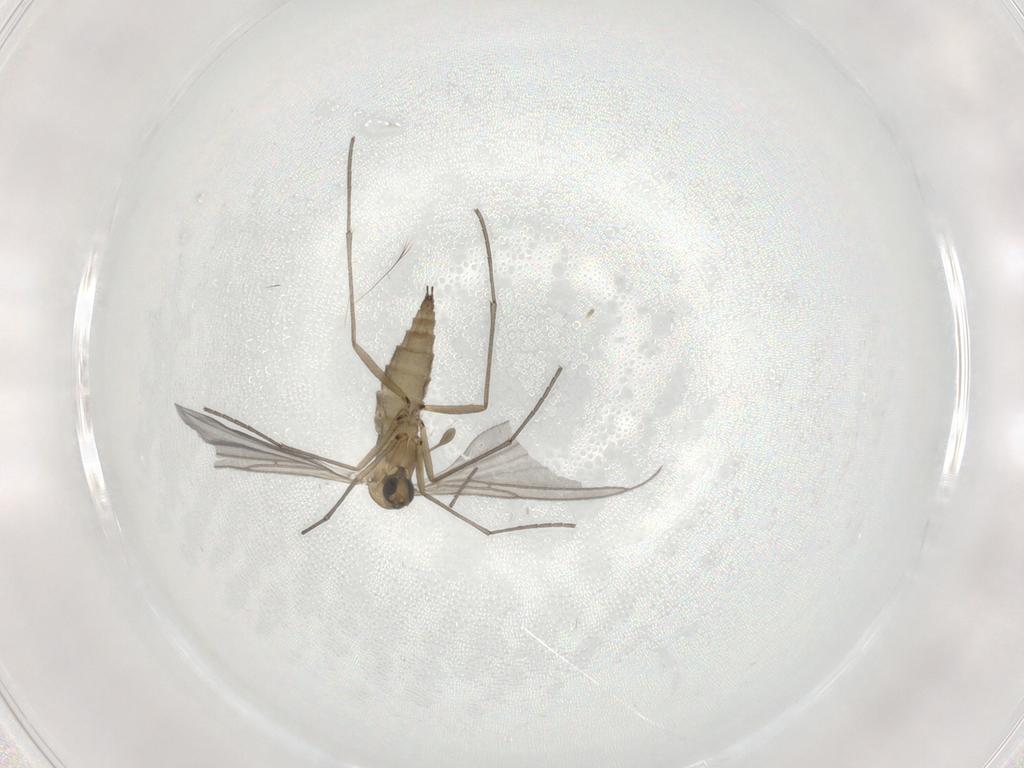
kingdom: Animalia
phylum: Arthropoda
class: Insecta
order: Diptera
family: Sciaridae
